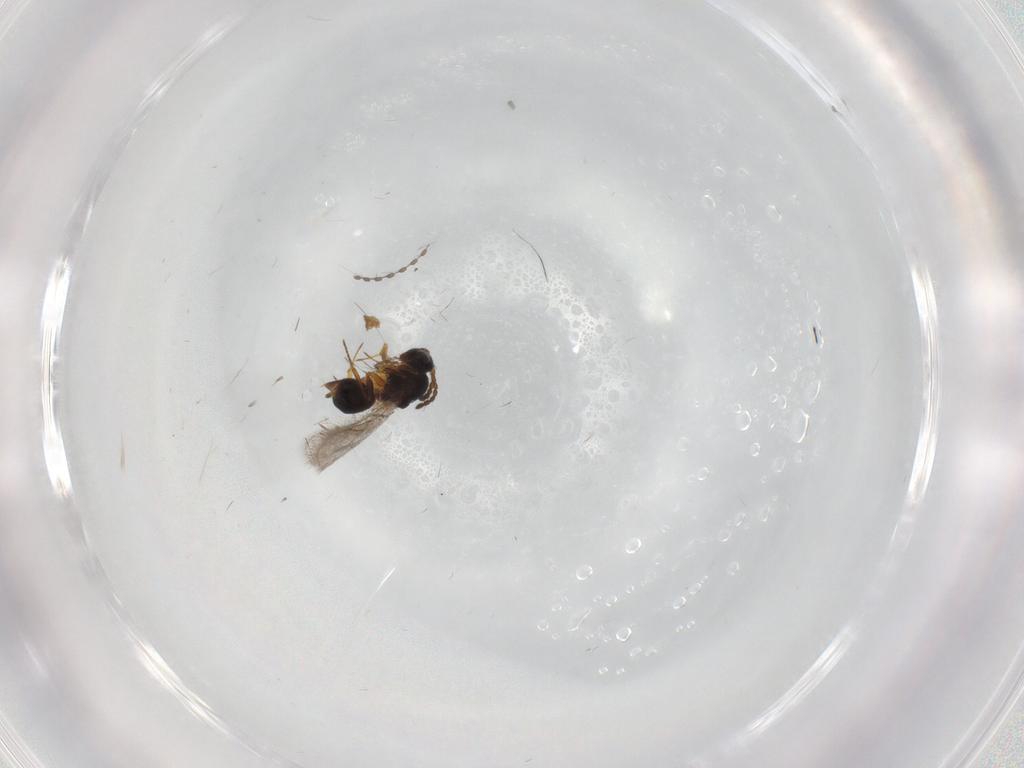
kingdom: Animalia
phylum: Arthropoda
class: Insecta
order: Hymenoptera
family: Figitidae
